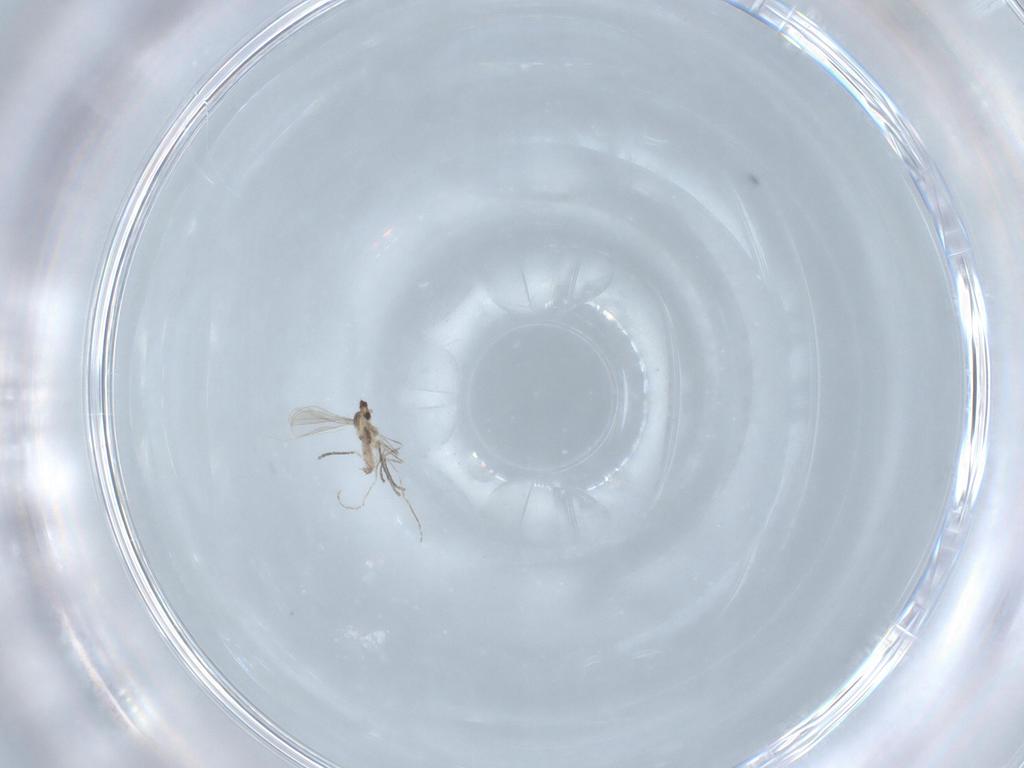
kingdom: Animalia
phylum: Arthropoda
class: Insecta
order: Diptera
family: Cecidomyiidae
